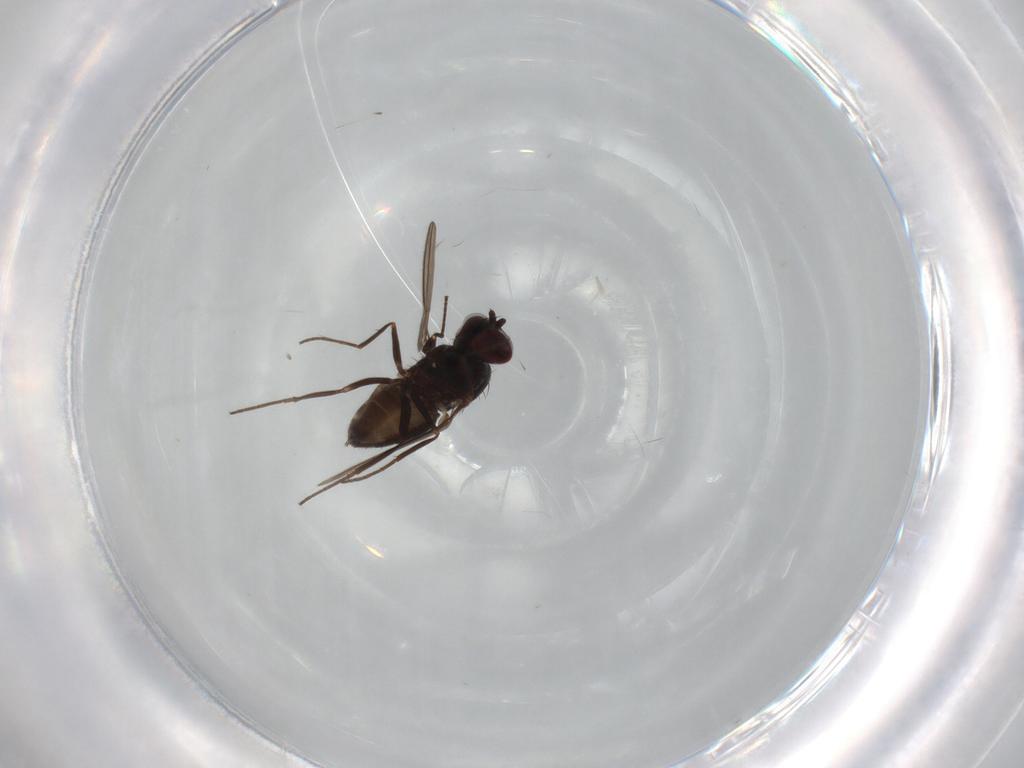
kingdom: Animalia
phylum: Arthropoda
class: Insecta
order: Diptera
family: Dolichopodidae
